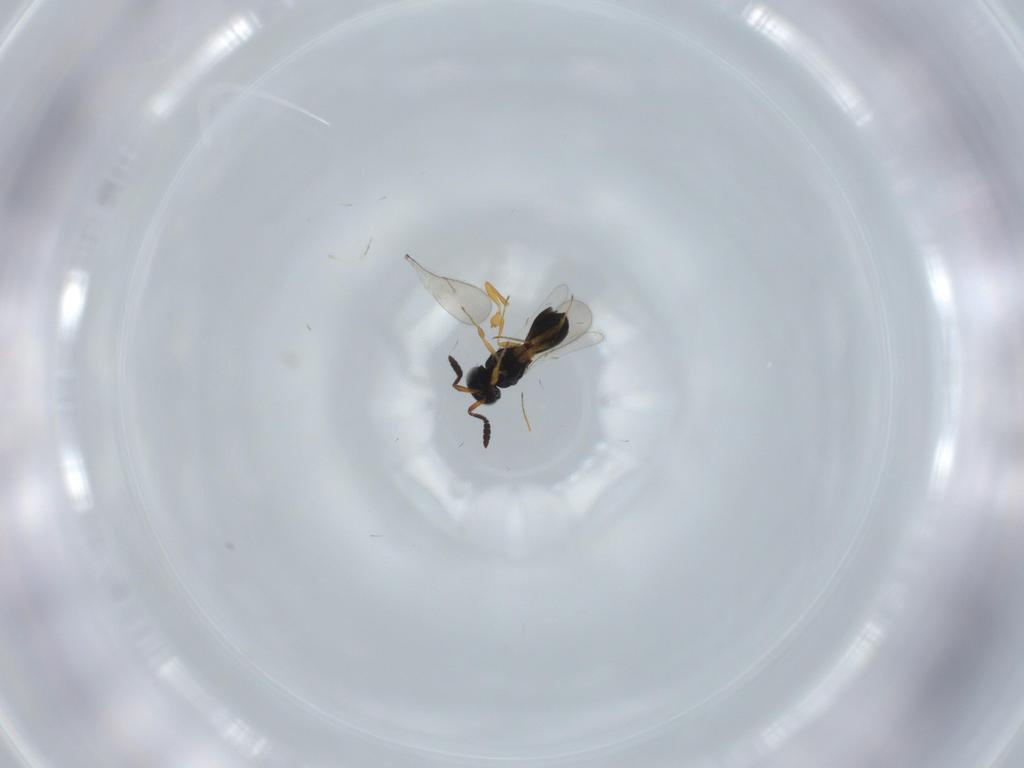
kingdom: Animalia
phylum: Arthropoda
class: Insecta
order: Hymenoptera
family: Scelionidae
